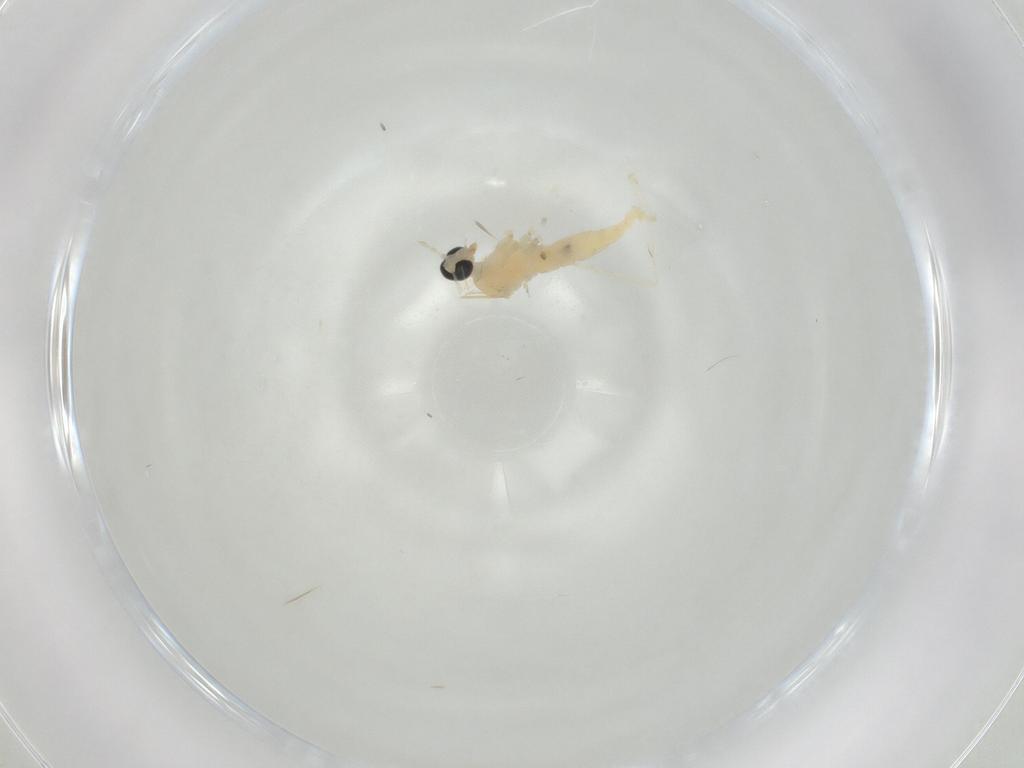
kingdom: Animalia
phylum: Arthropoda
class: Insecta
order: Diptera
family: Cecidomyiidae
